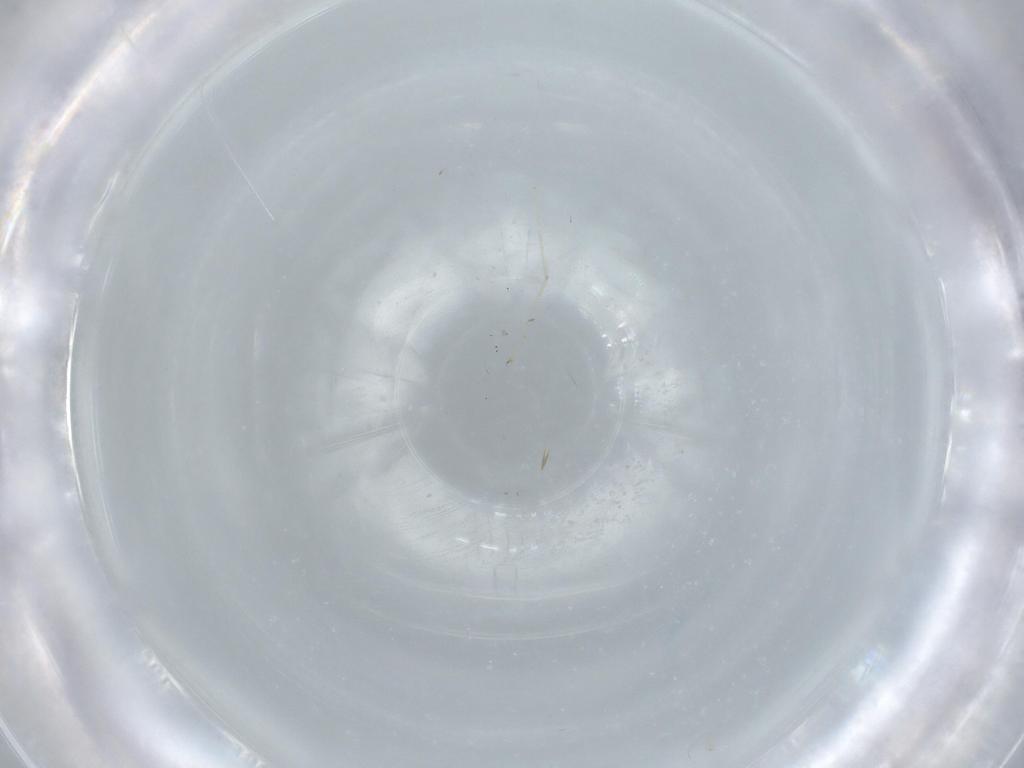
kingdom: Animalia
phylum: Arthropoda
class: Insecta
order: Diptera
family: Cecidomyiidae
